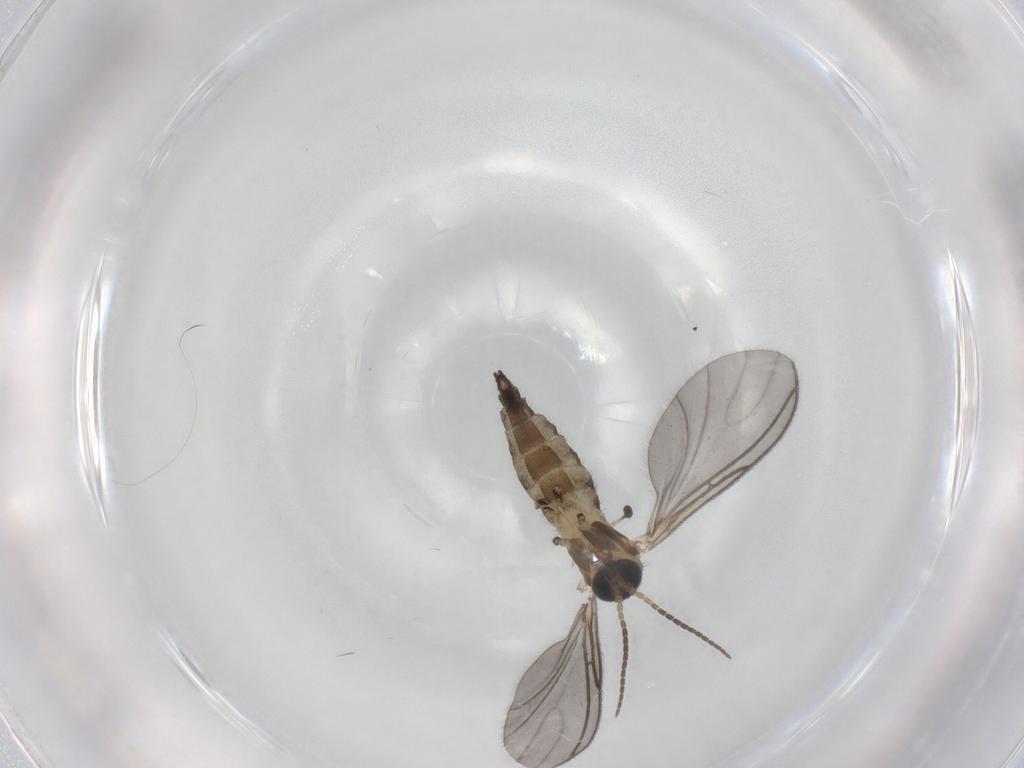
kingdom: Animalia
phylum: Arthropoda
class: Insecta
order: Diptera
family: Sciaridae
